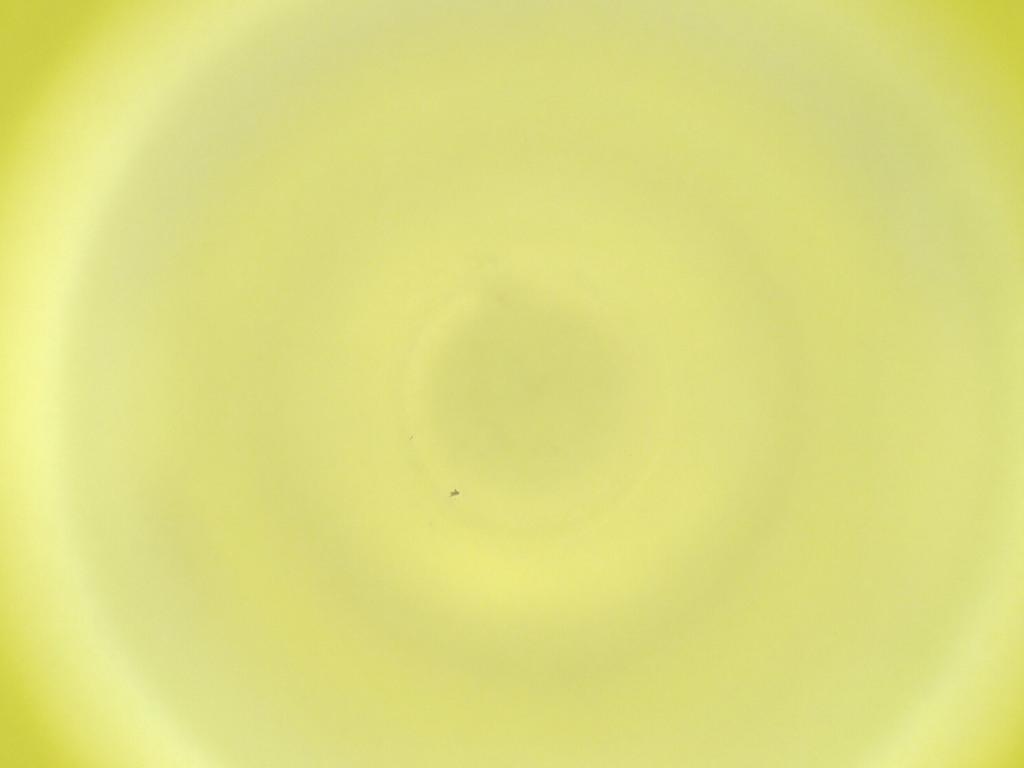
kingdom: Animalia
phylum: Arthropoda
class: Insecta
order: Diptera
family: Cecidomyiidae
